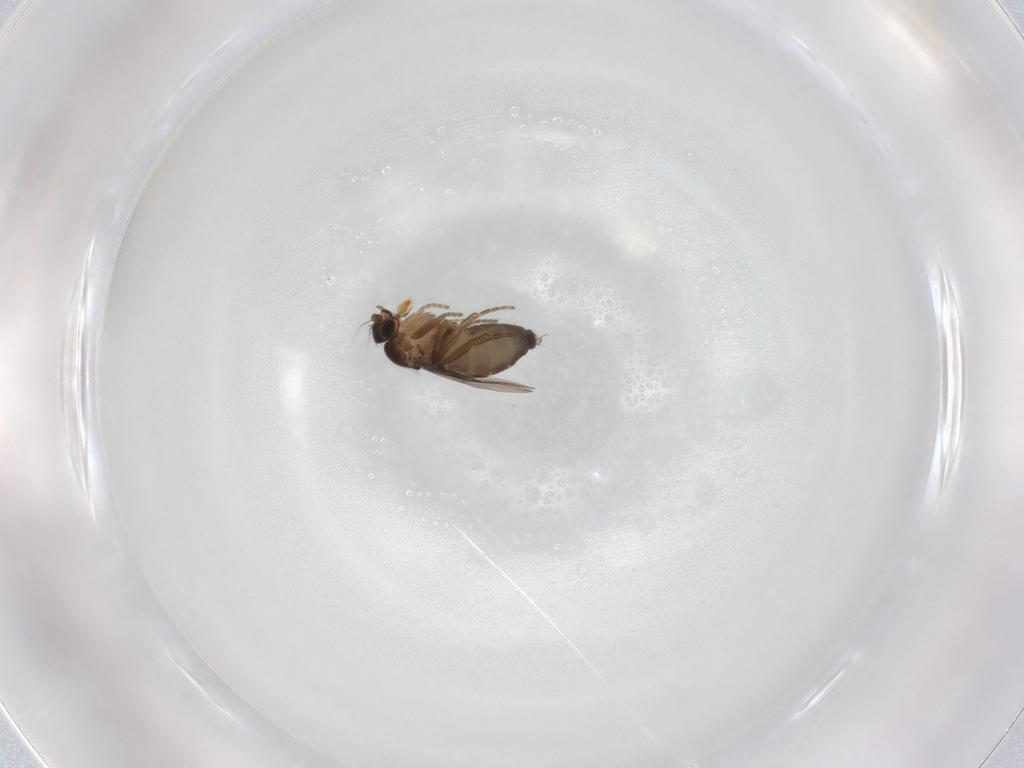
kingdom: Animalia
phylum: Arthropoda
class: Insecta
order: Diptera
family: Phoridae
